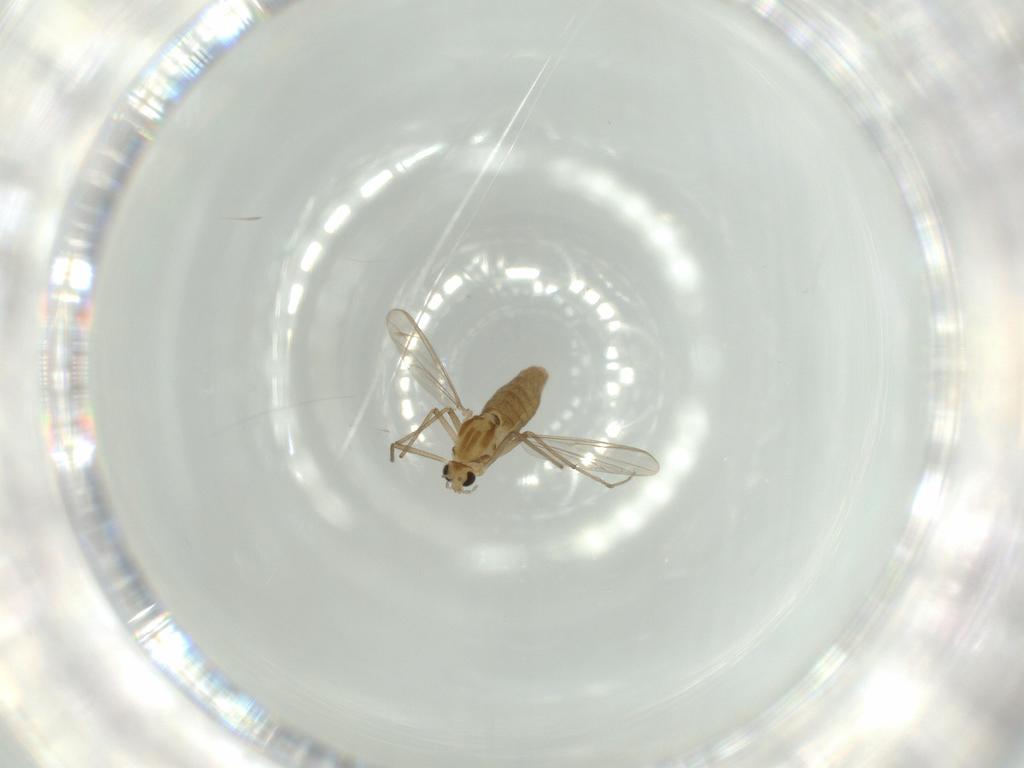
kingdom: Animalia
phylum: Arthropoda
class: Insecta
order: Diptera
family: Chironomidae
